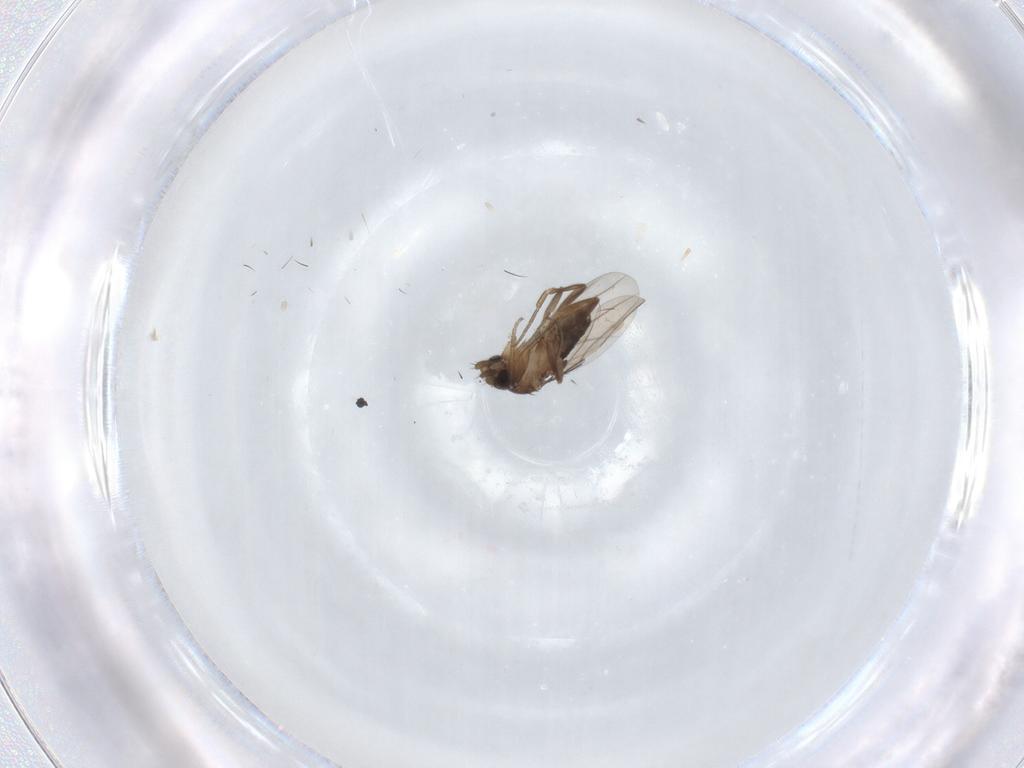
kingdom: Animalia
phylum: Arthropoda
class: Insecta
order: Diptera
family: Phoridae
